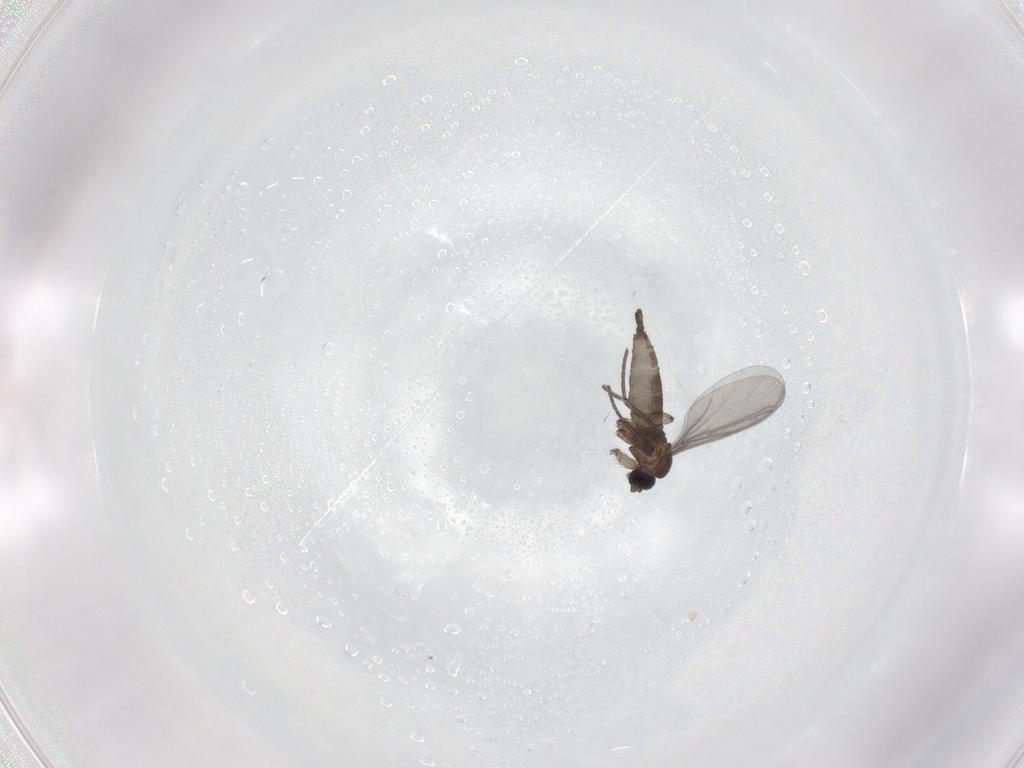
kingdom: Animalia
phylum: Arthropoda
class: Insecta
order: Diptera
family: Sciaridae
